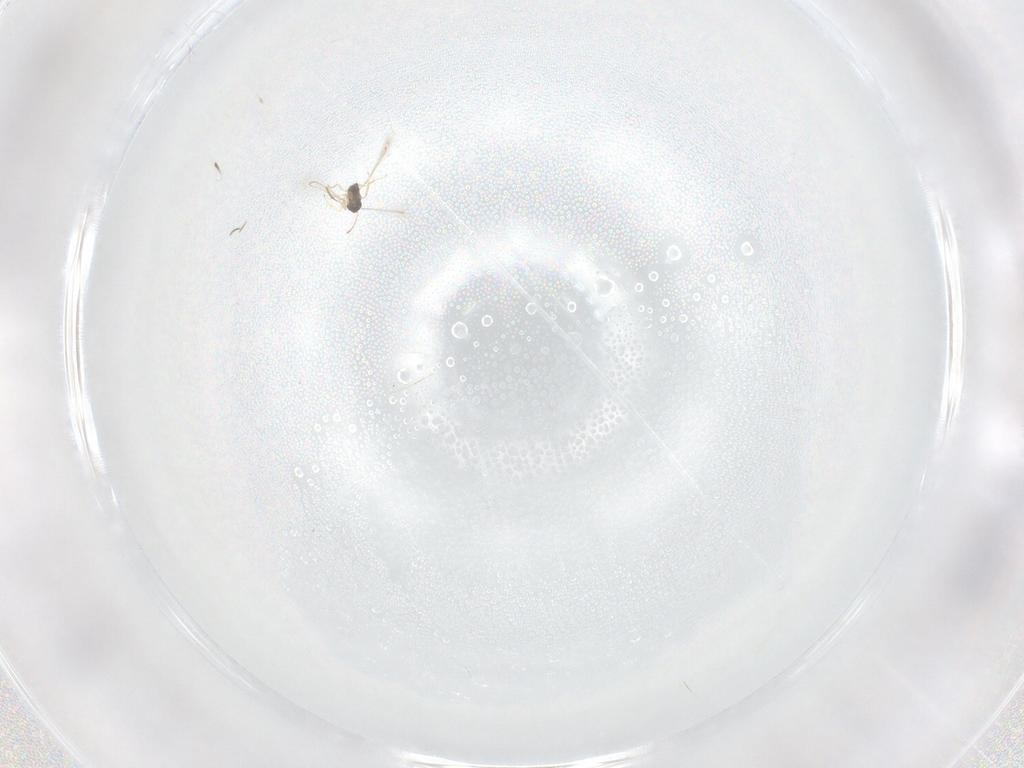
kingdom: Animalia
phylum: Arthropoda
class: Insecta
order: Hymenoptera
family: Mymaridae
